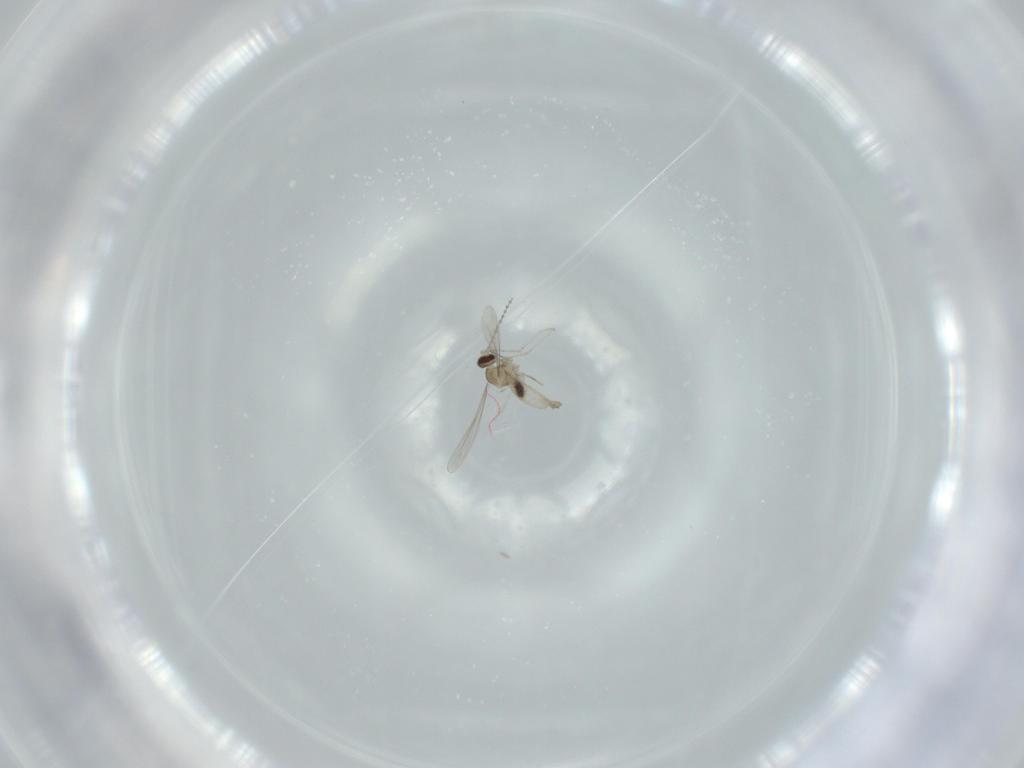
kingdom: Animalia
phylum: Arthropoda
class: Insecta
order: Diptera
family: Cecidomyiidae
